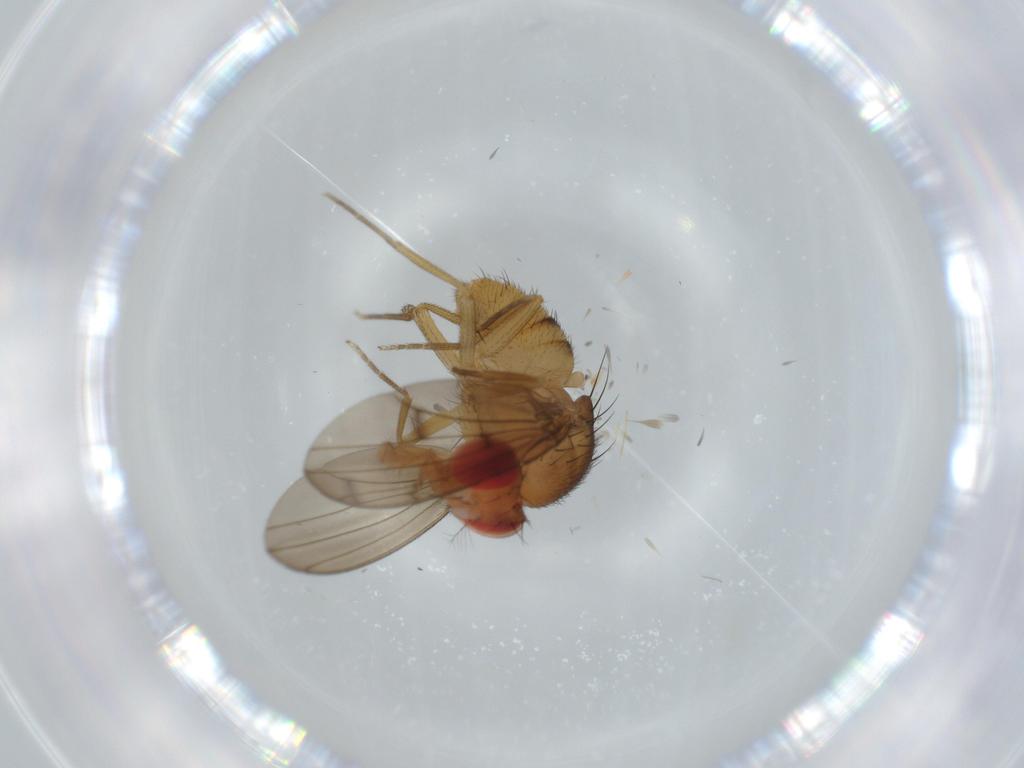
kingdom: Animalia
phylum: Arthropoda
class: Insecta
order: Diptera
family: Drosophilidae
